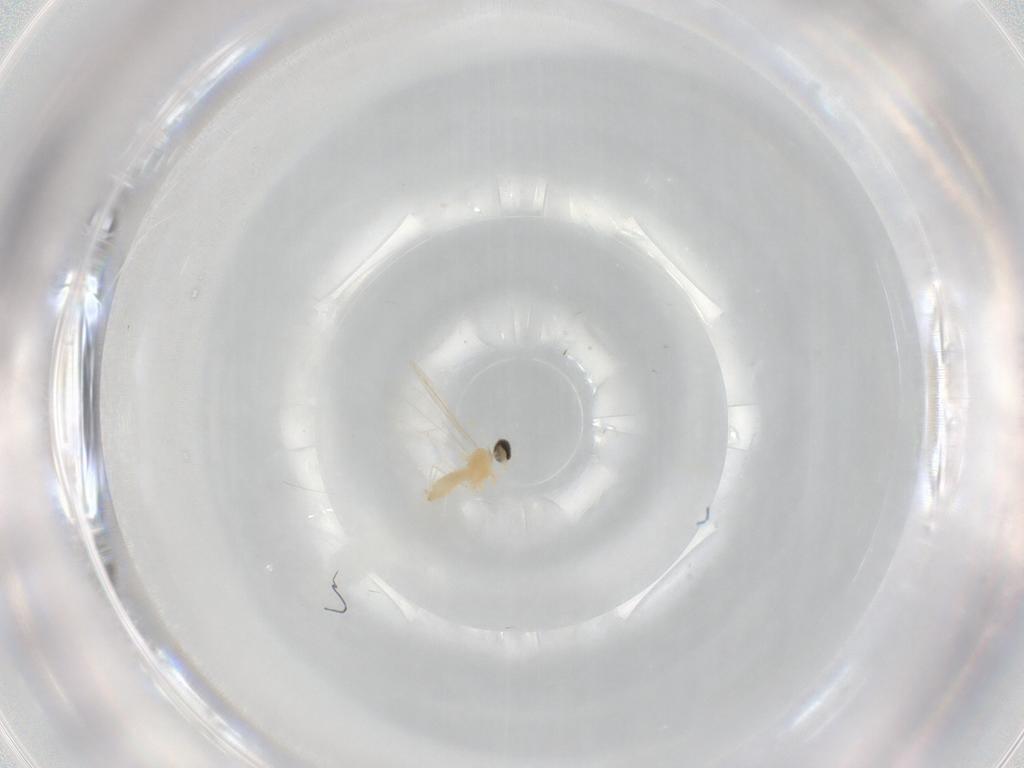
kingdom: Animalia
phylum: Arthropoda
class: Insecta
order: Diptera
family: Cecidomyiidae
